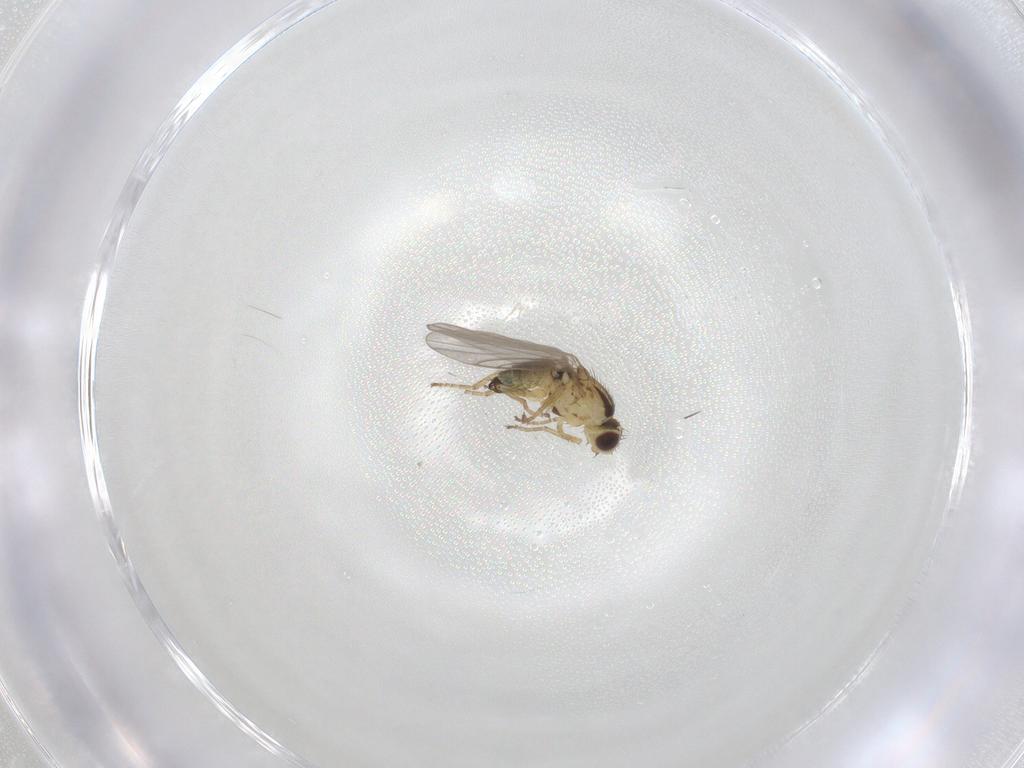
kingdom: Animalia
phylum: Arthropoda
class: Insecta
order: Diptera
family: Agromyzidae
